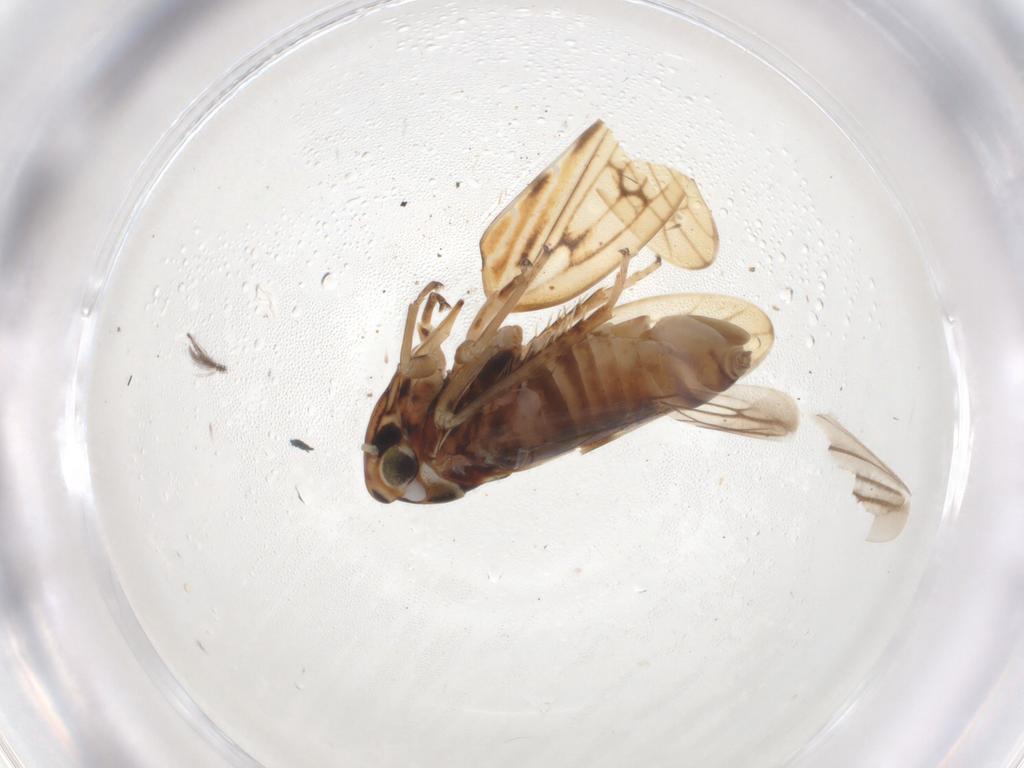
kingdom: Animalia
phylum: Arthropoda
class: Insecta
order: Hemiptera
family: Cicadellidae
